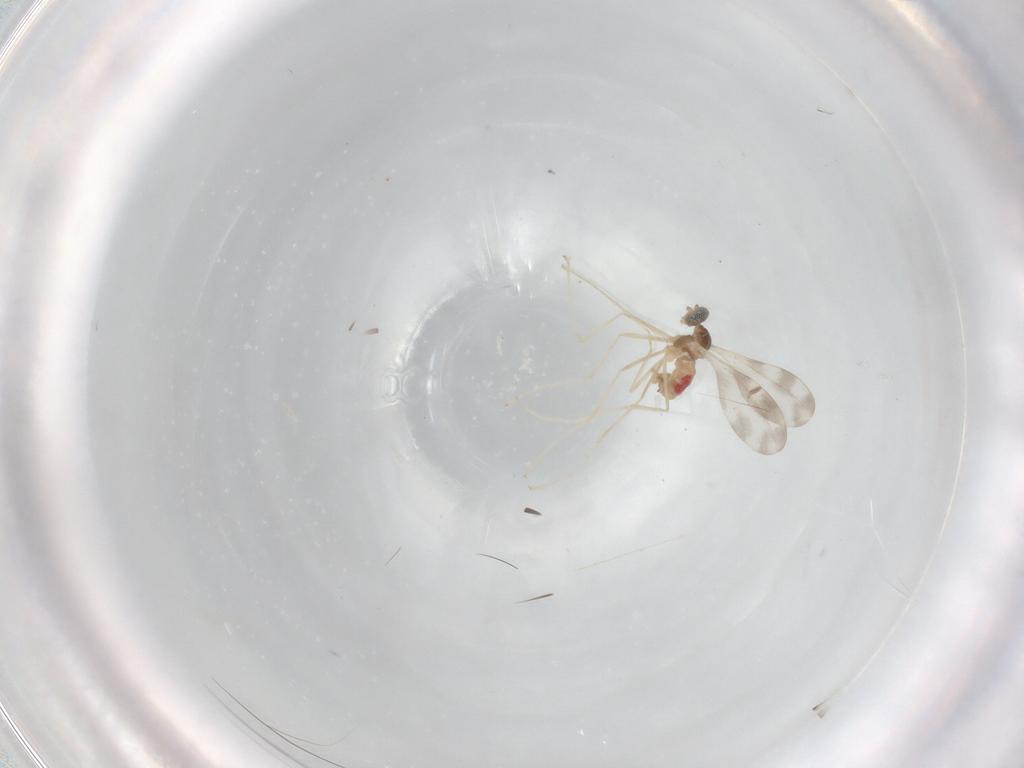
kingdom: Animalia
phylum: Arthropoda
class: Insecta
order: Diptera
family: Cecidomyiidae
